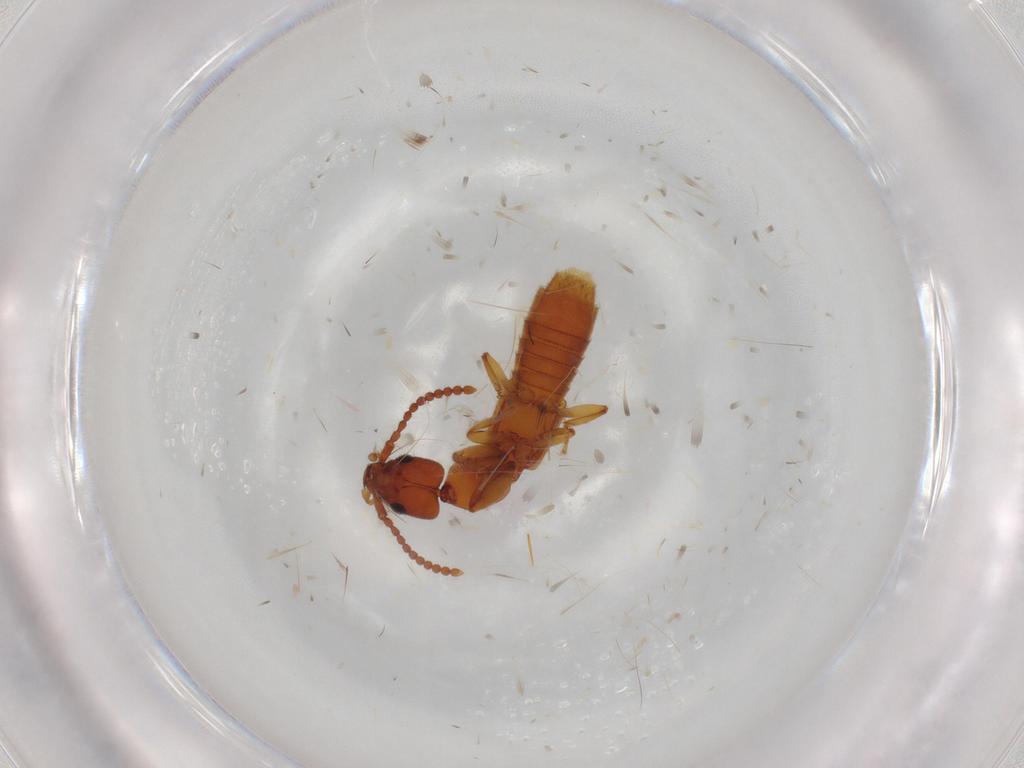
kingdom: Animalia
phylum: Arthropoda
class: Insecta
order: Coleoptera
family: Staphylinidae
